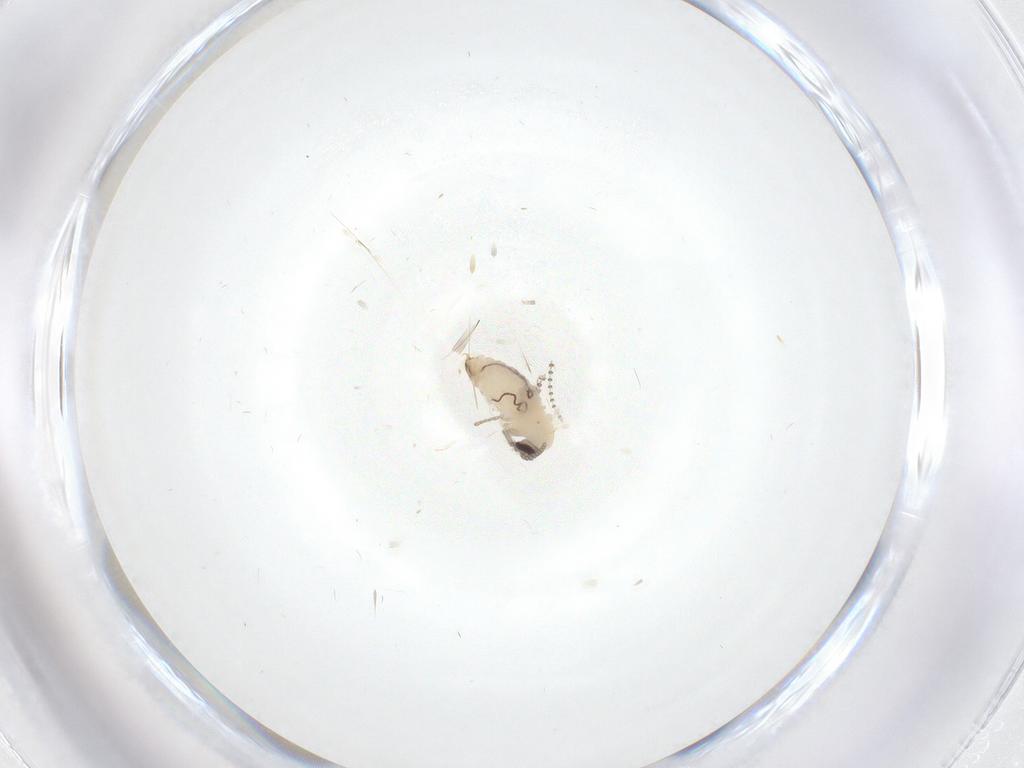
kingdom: Animalia
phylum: Arthropoda
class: Insecta
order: Diptera
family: Psychodidae
